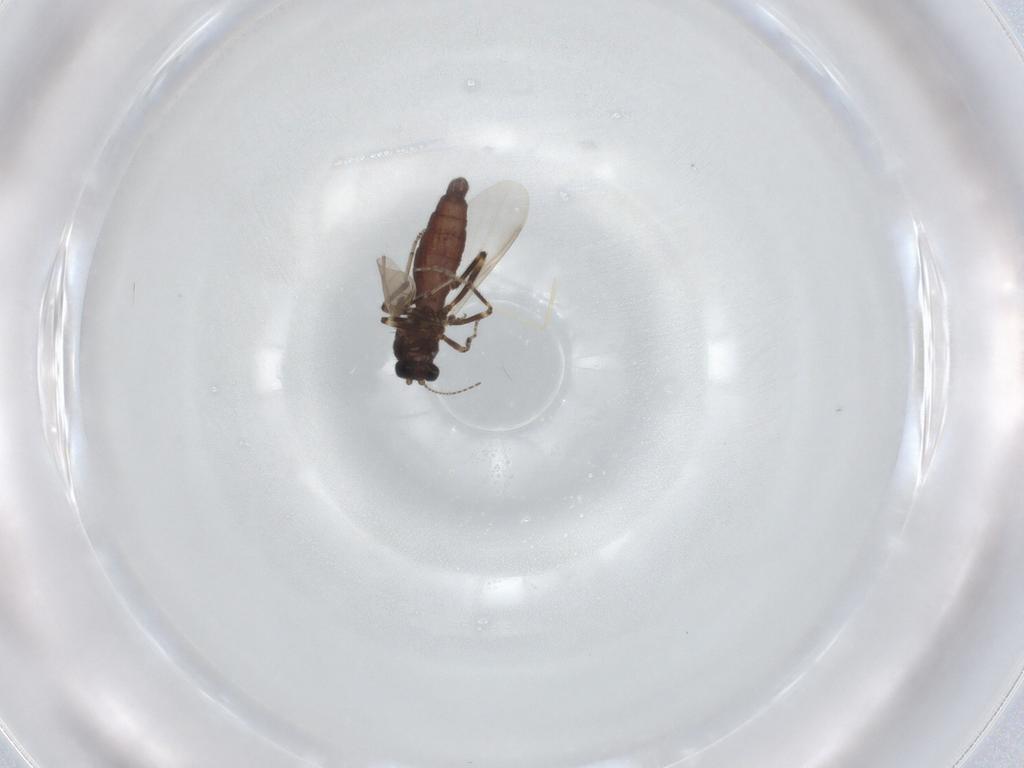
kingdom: Animalia
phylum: Arthropoda
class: Insecta
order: Diptera
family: Ceratopogonidae
